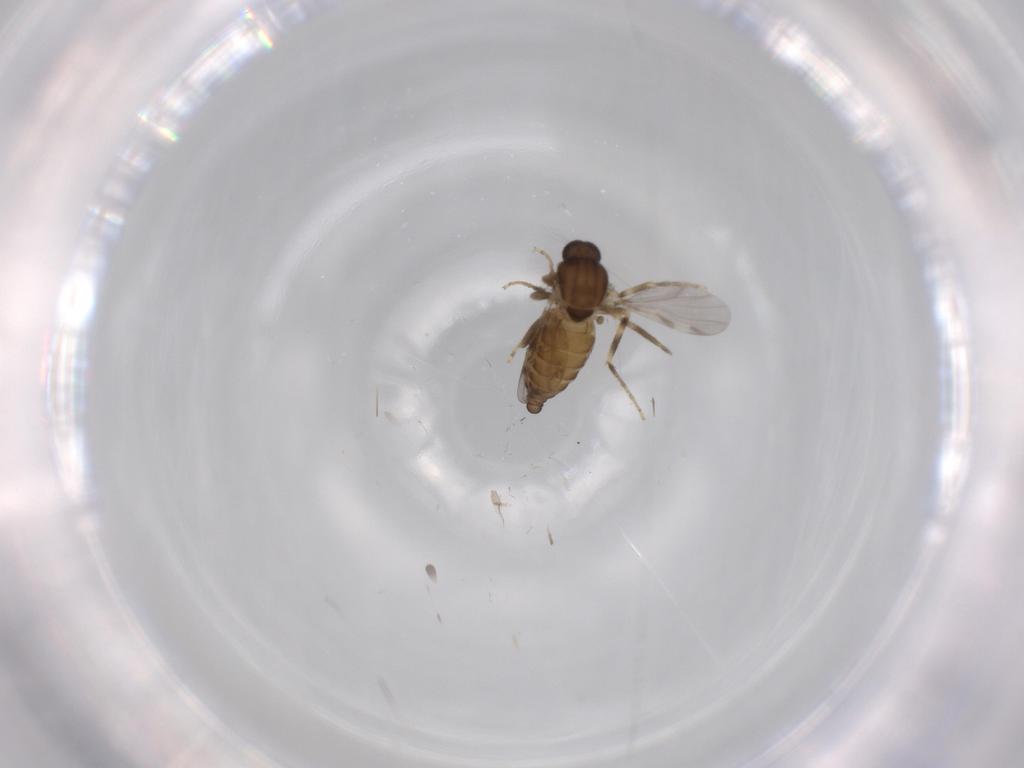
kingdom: Animalia
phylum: Arthropoda
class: Insecta
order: Diptera
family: Ceratopogonidae
